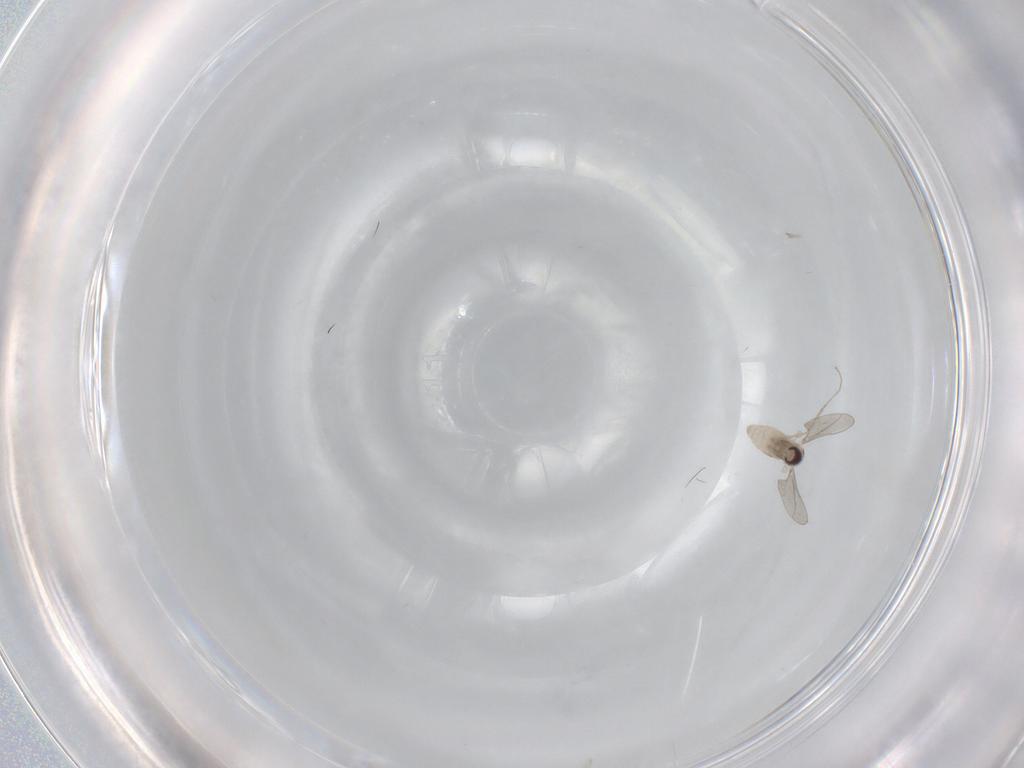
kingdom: Animalia
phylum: Arthropoda
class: Insecta
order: Diptera
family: Cecidomyiidae
